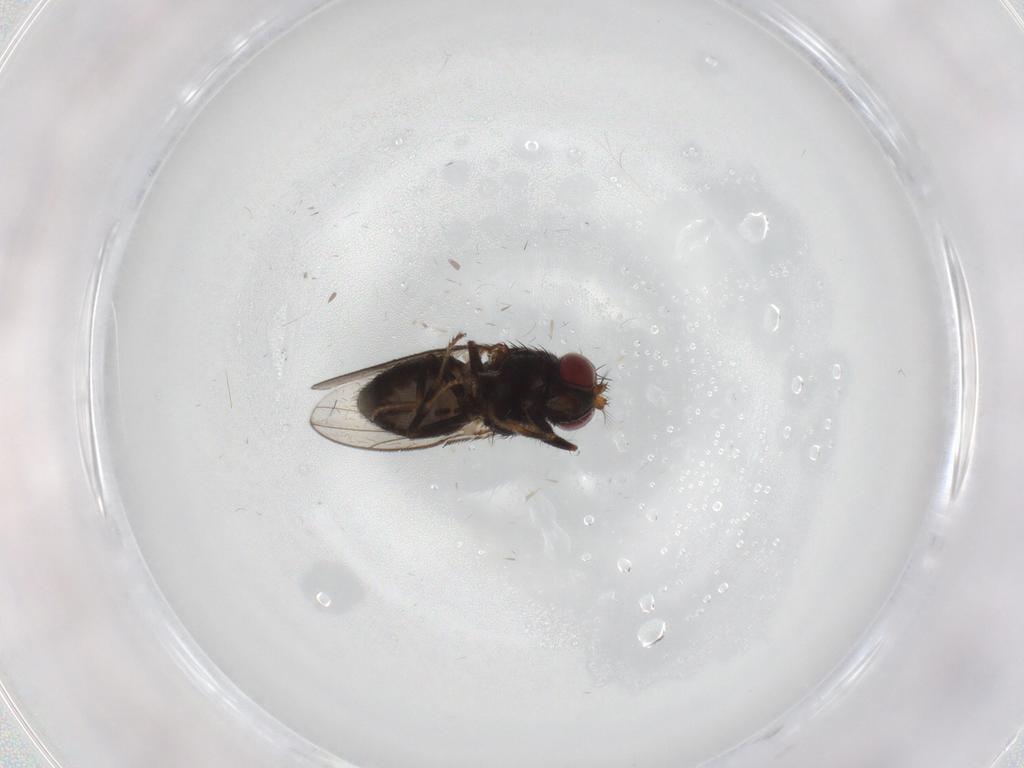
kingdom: Animalia
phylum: Arthropoda
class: Insecta
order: Diptera
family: Ephydridae
